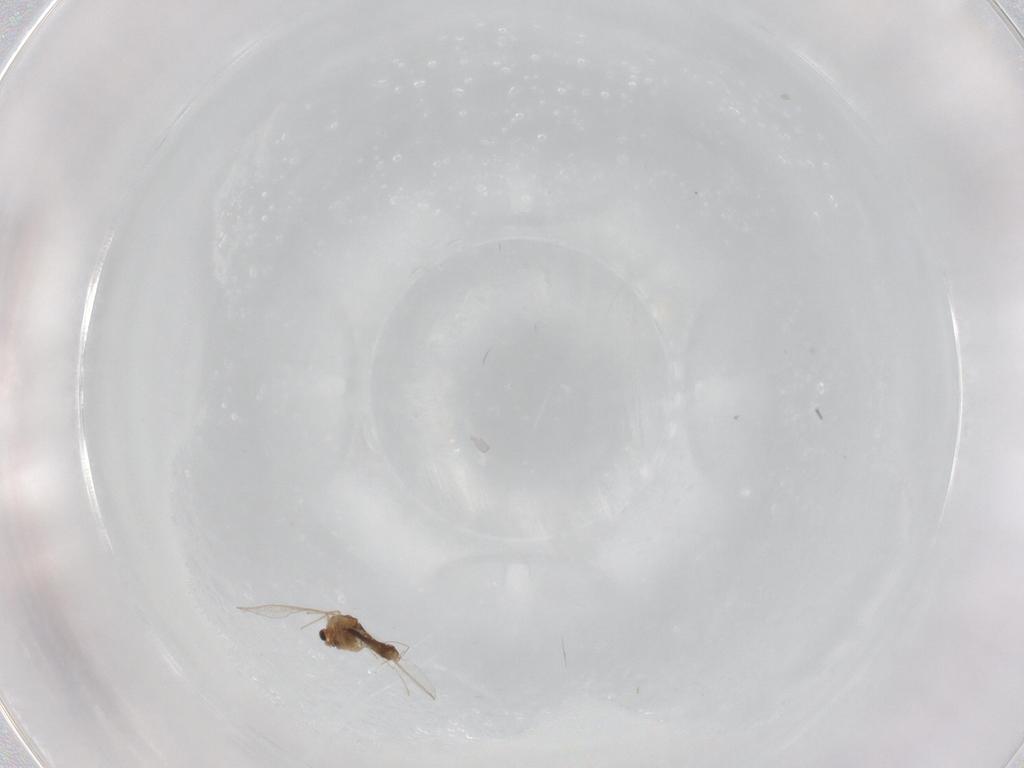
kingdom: Animalia
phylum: Arthropoda
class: Insecta
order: Diptera
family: Chironomidae
